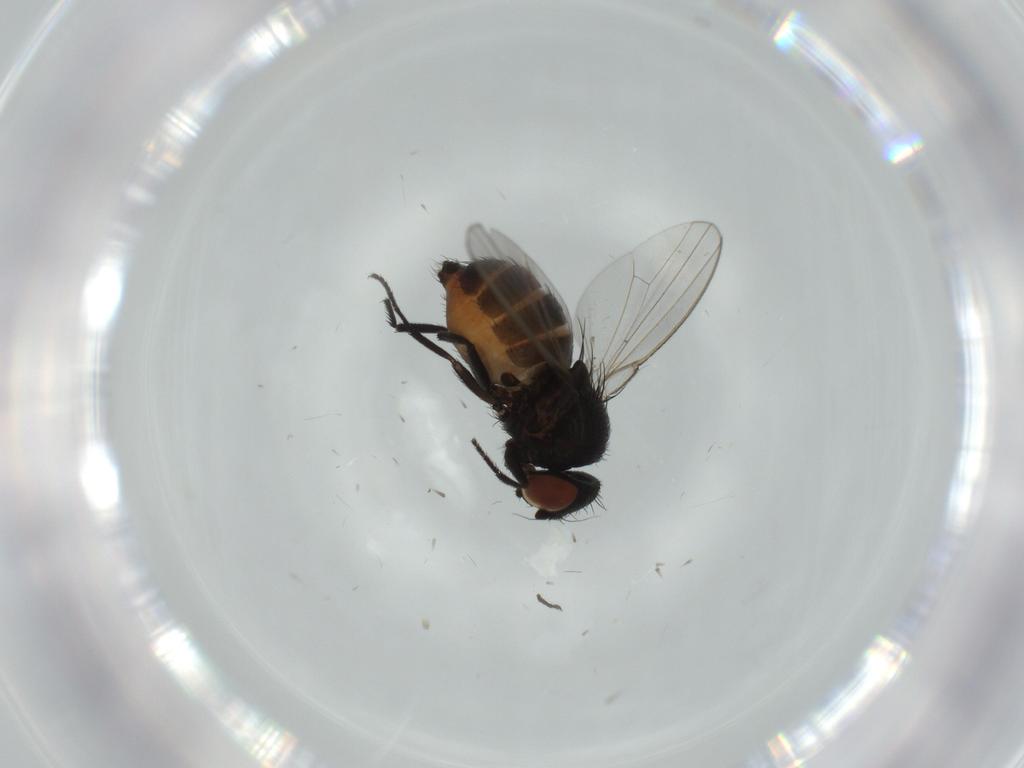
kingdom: Animalia
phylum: Arthropoda
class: Insecta
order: Diptera
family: Milichiidae
